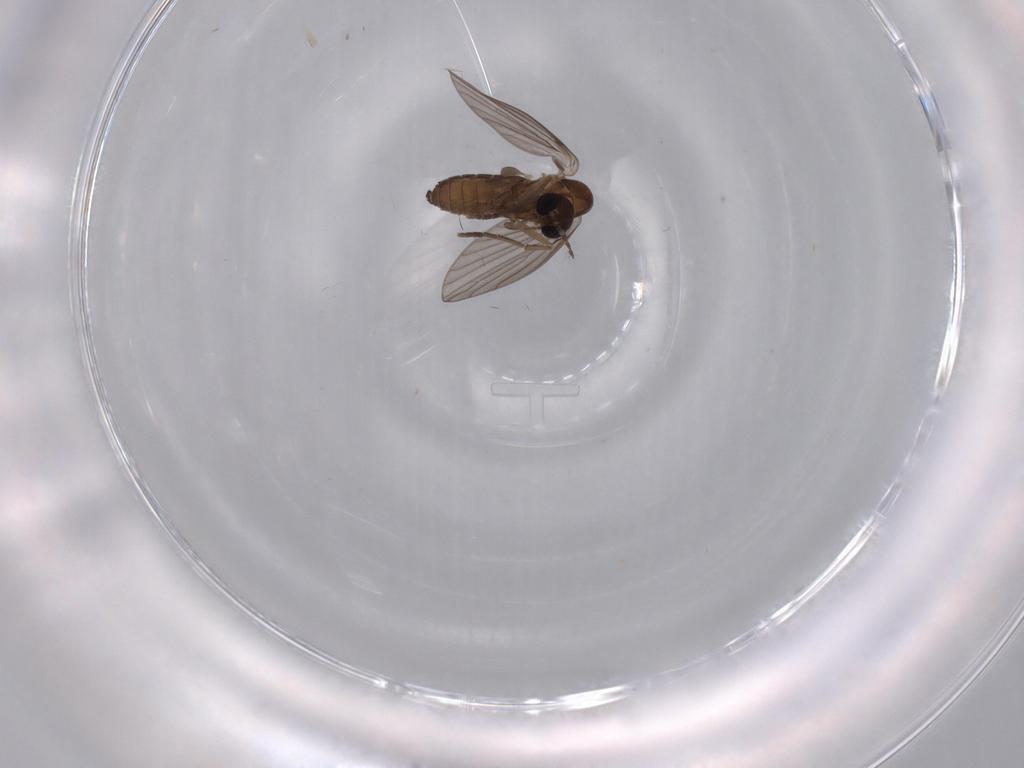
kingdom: Animalia
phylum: Arthropoda
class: Insecta
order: Diptera
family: Psychodidae
